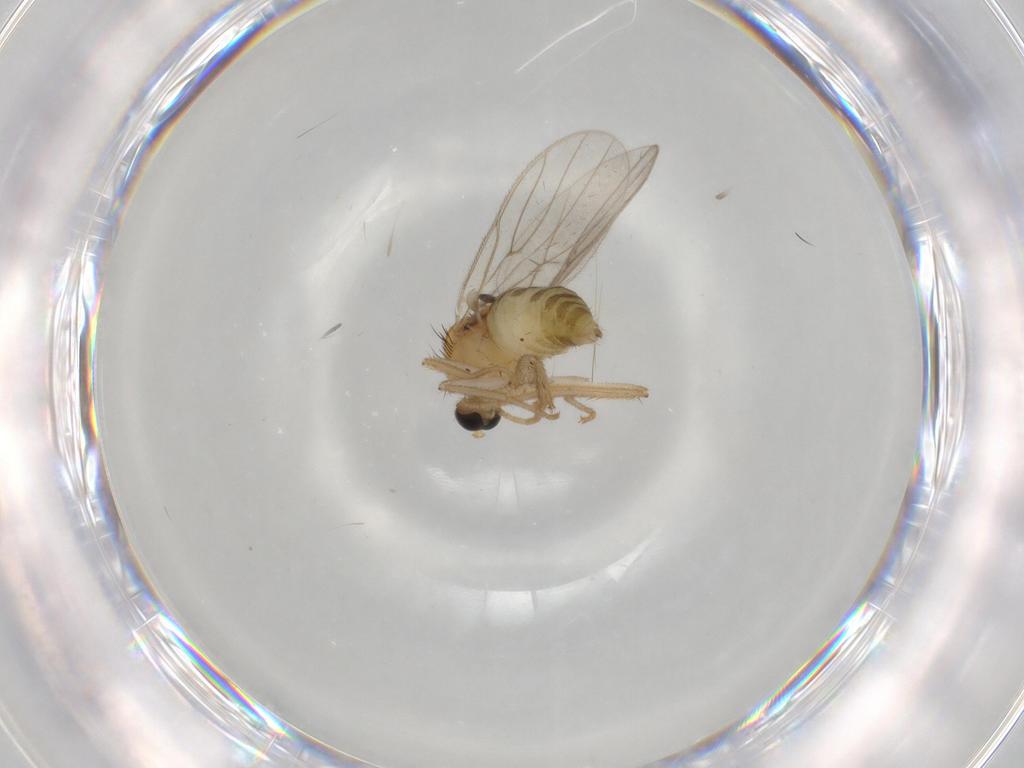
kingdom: Animalia
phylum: Arthropoda
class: Insecta
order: Diptera
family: Hybotidae
